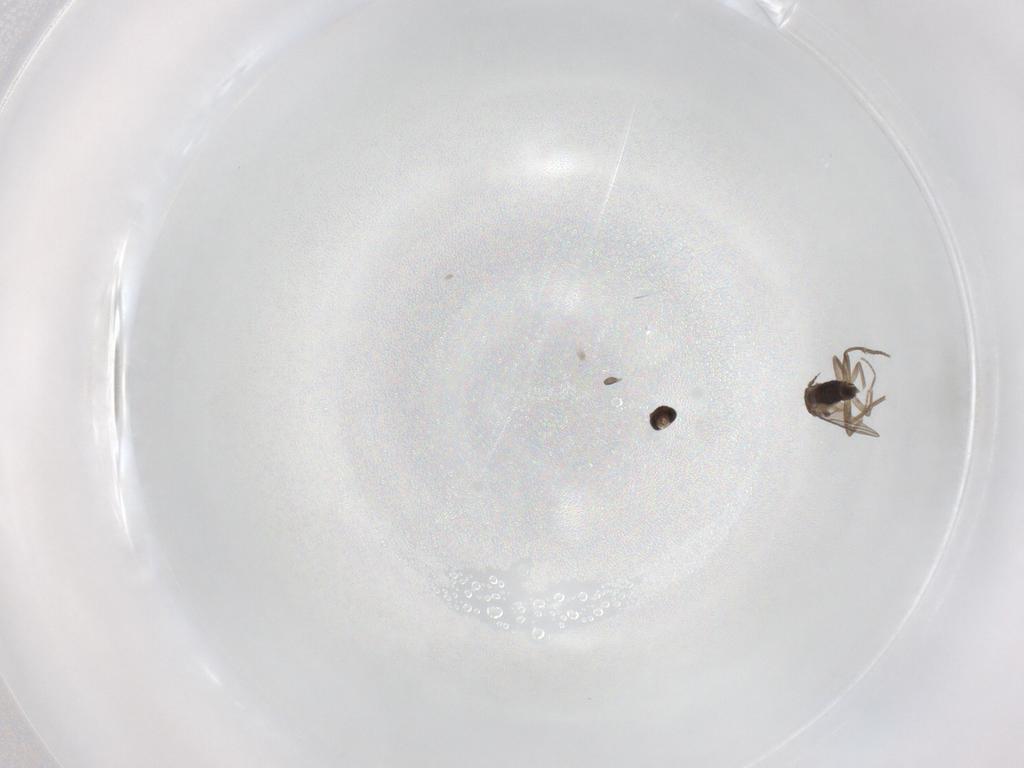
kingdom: Animalia
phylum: Arthropoda
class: Insecta
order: Diptera
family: Phoridae
